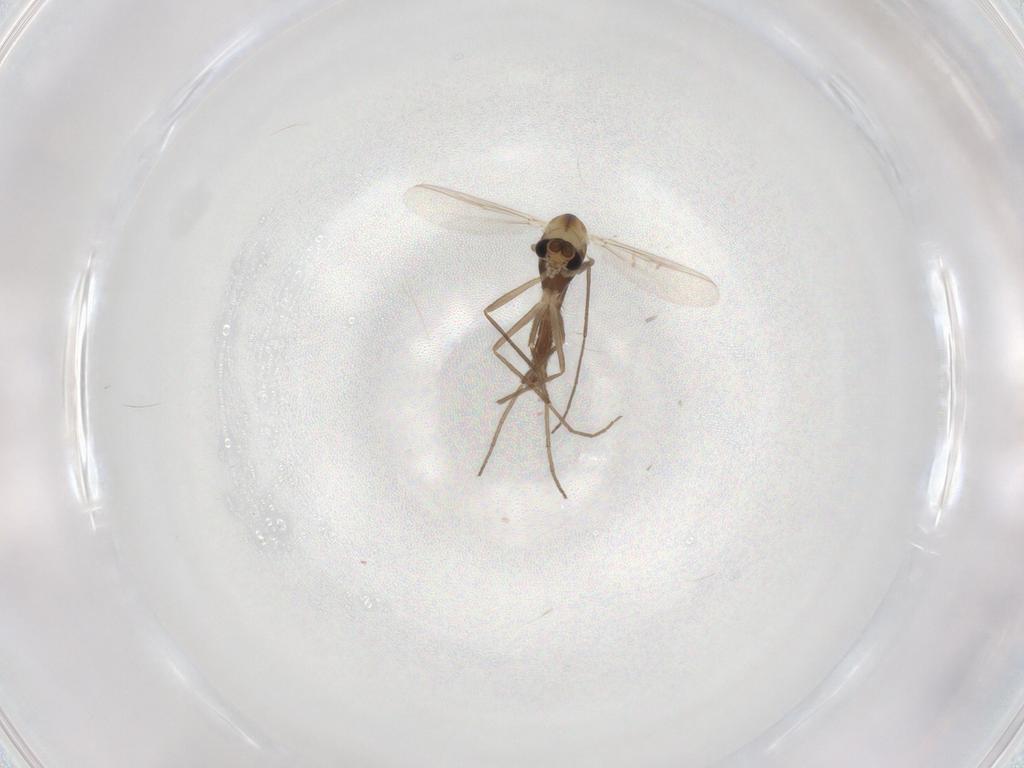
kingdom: Animalia
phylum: Arthropoda
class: Insecta
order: Diptera
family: Chironomidae
